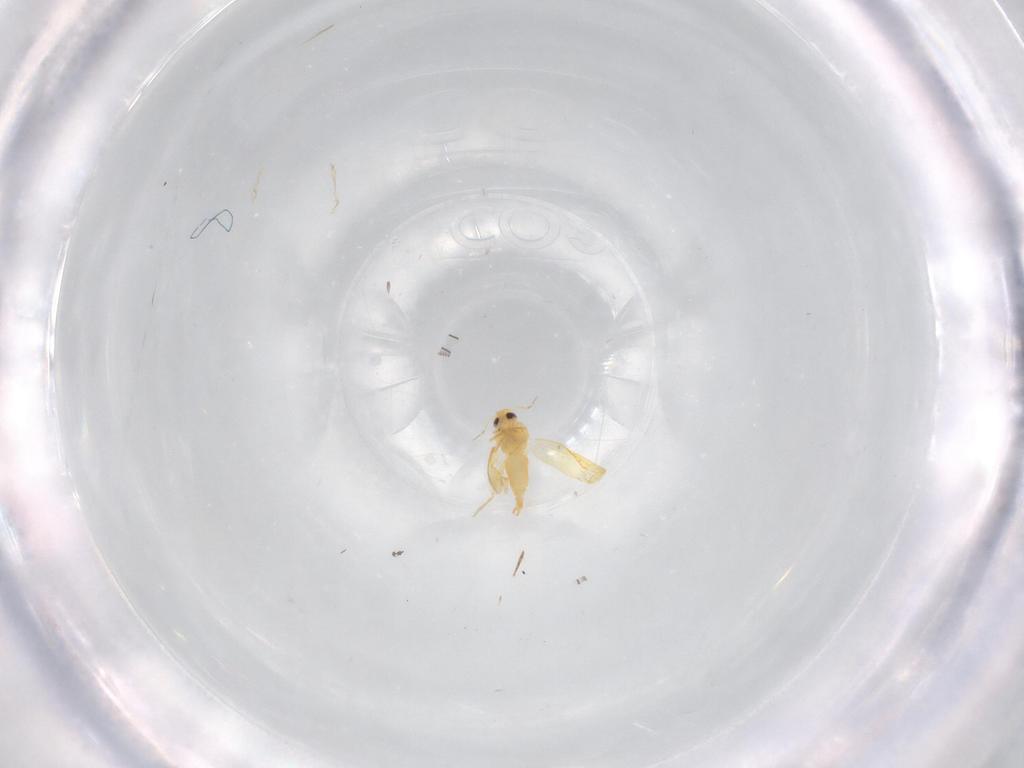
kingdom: Animalia
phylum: Arthropoda
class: Insecta
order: Hemiptera
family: Aleyrodidae
